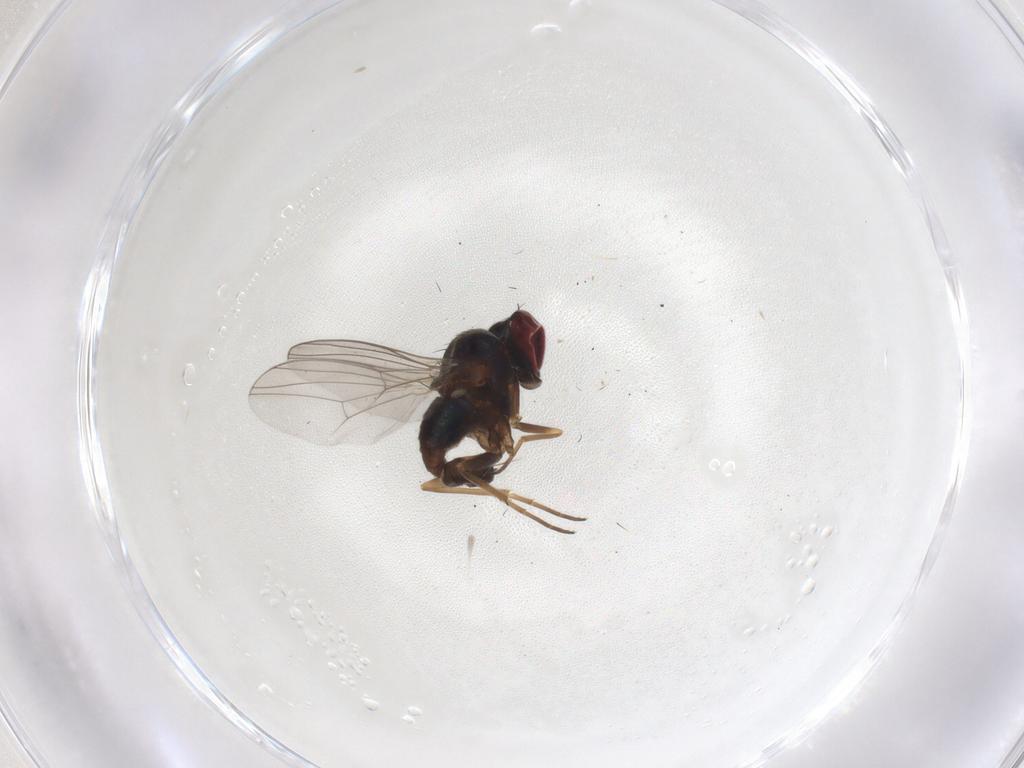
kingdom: Animalia
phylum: Arthropoda
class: Insecta
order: Diptera
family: Dolichopodidae
